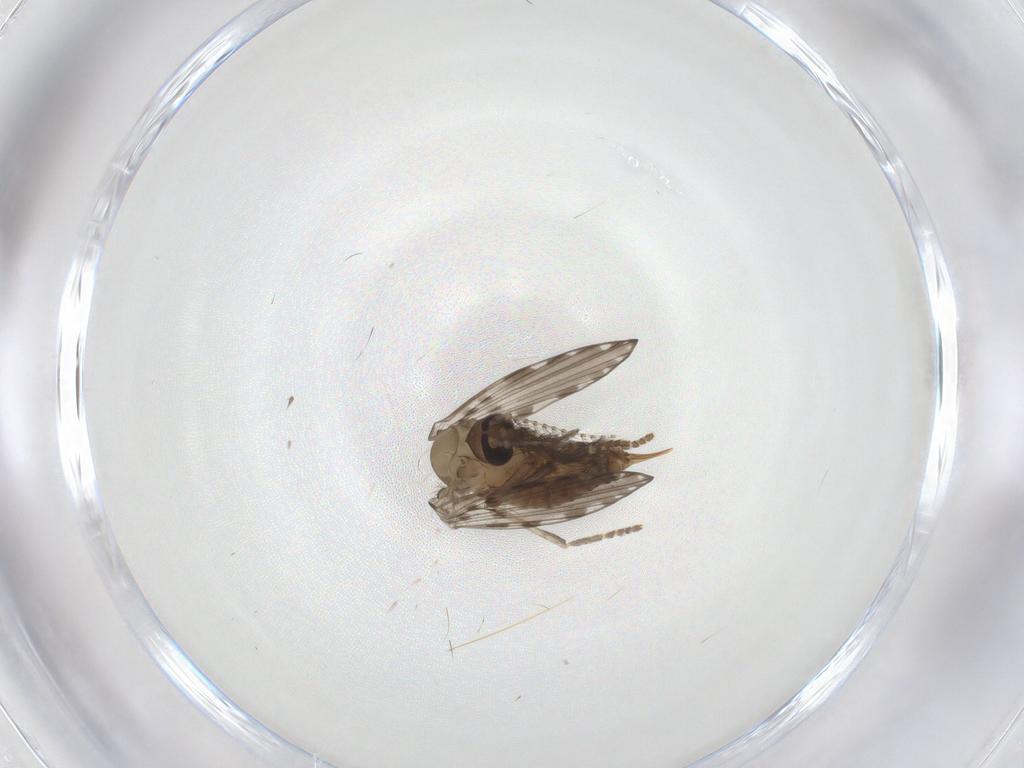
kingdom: Animalia
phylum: Arthropoda
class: Insecta
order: Diptera
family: Psychodidae
